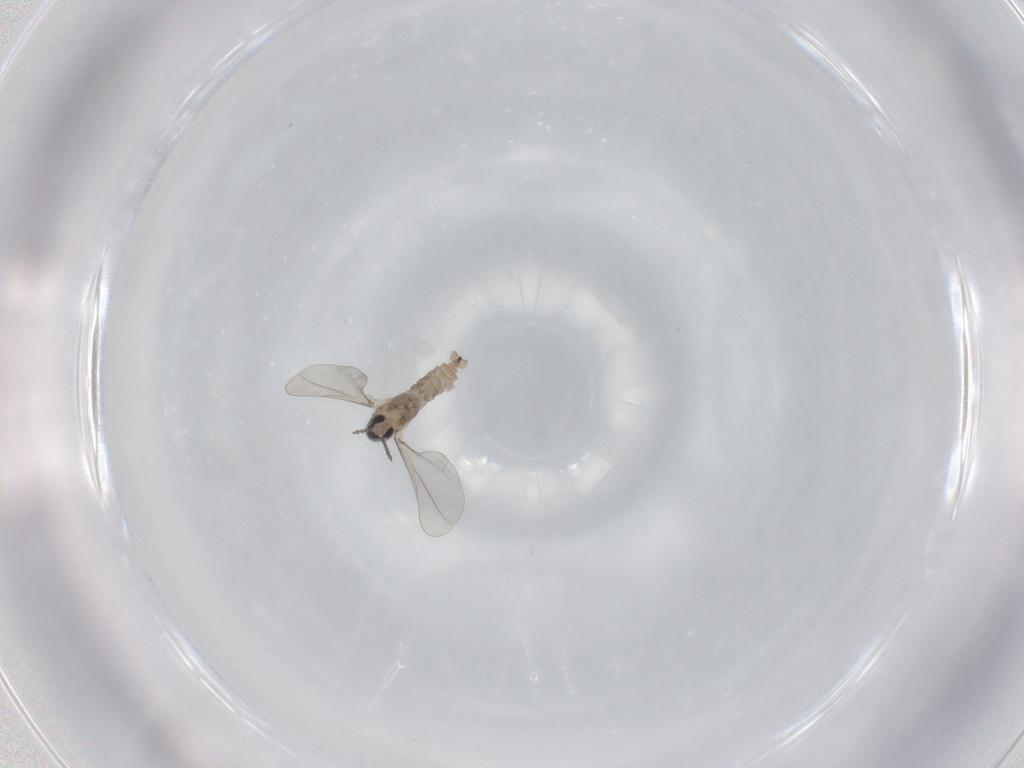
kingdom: Animalia
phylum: Arthropoda
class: Insecta
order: Diptera
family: Cecidomyiidae
